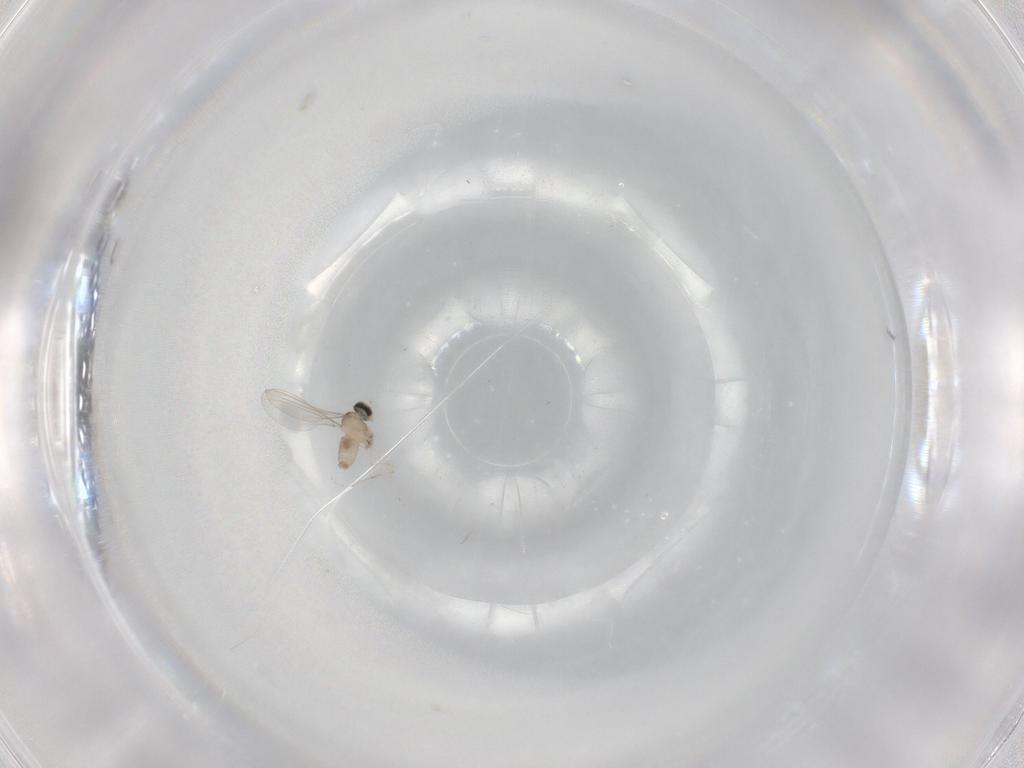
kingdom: Animalia
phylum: Arthropoda
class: Insecta
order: Diptera
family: Cecidomyiidae
